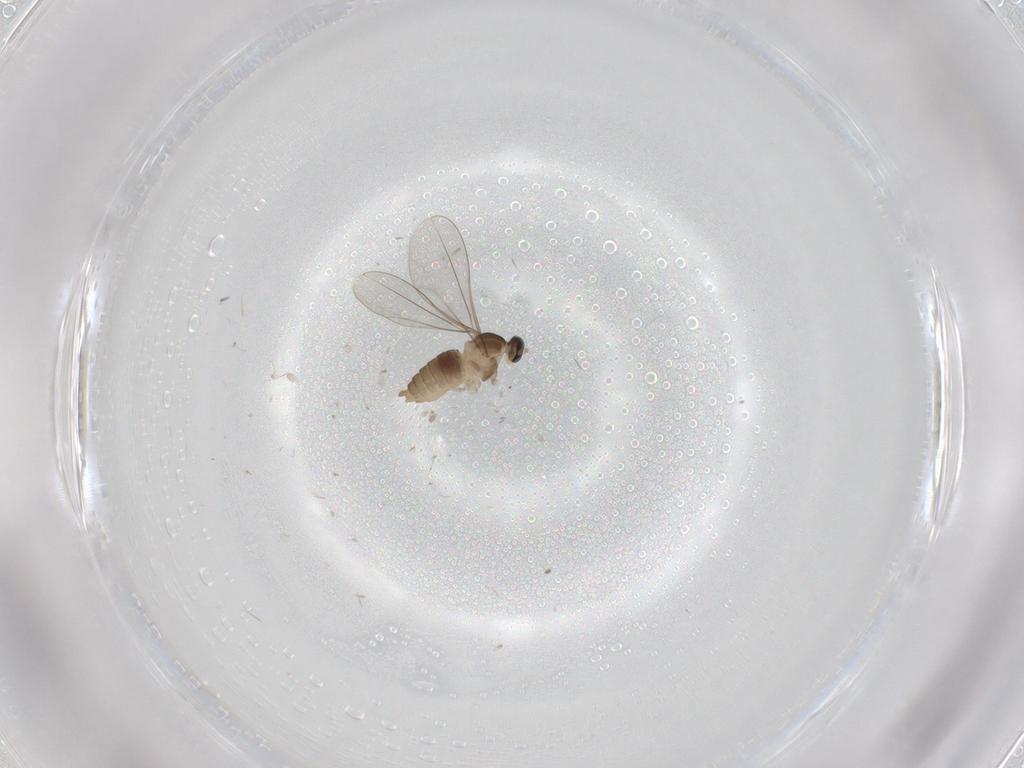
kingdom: Animalia
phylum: Arthropoda
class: Insecta
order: Diptera
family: Cecidomyiidae
